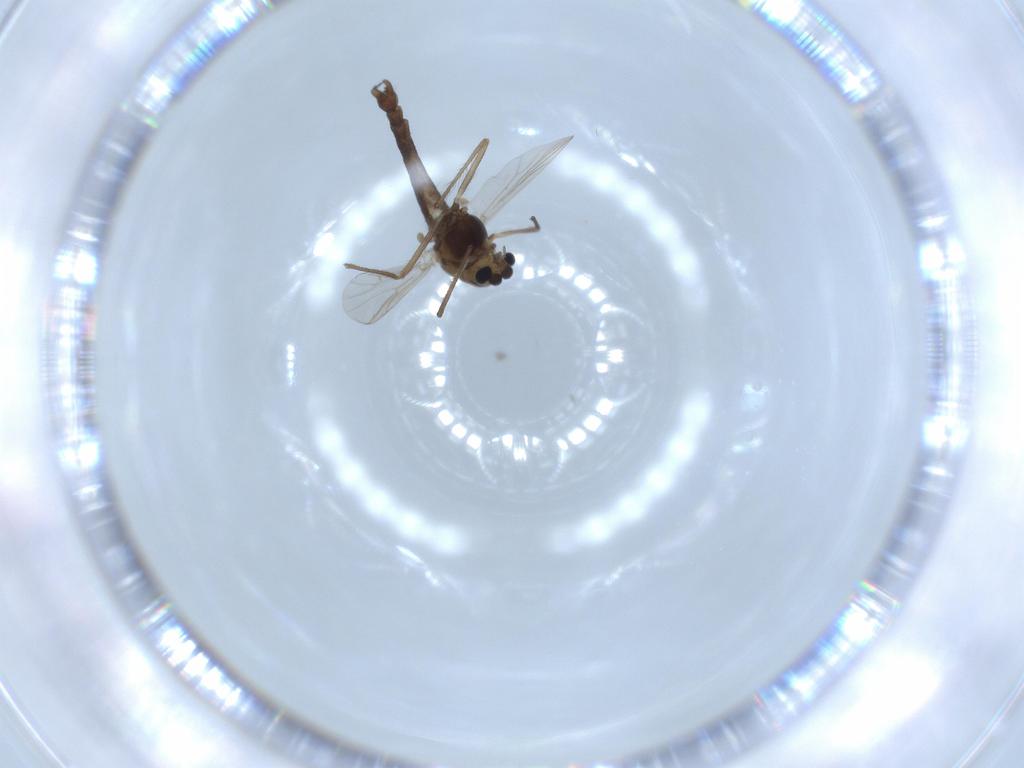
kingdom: Animalia
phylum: Arthropoda
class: Insecta
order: Diptera
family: Chironomidae
